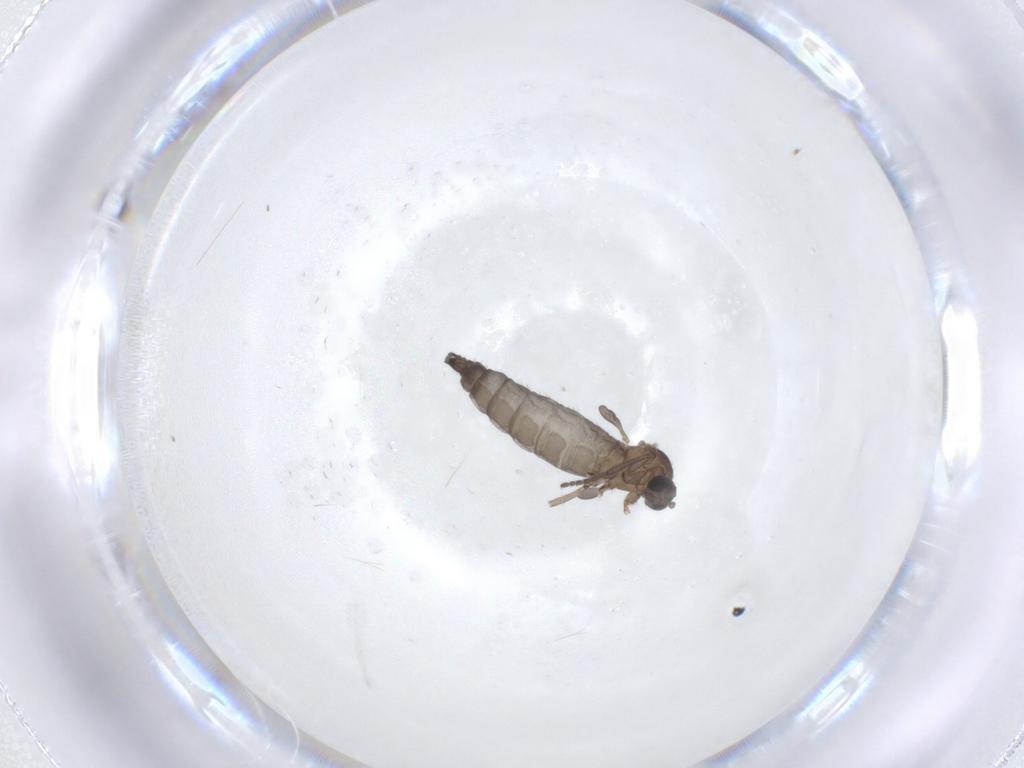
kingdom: Animalia
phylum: Arthropoda
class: Insecta
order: Diptera
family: Sciaridae
